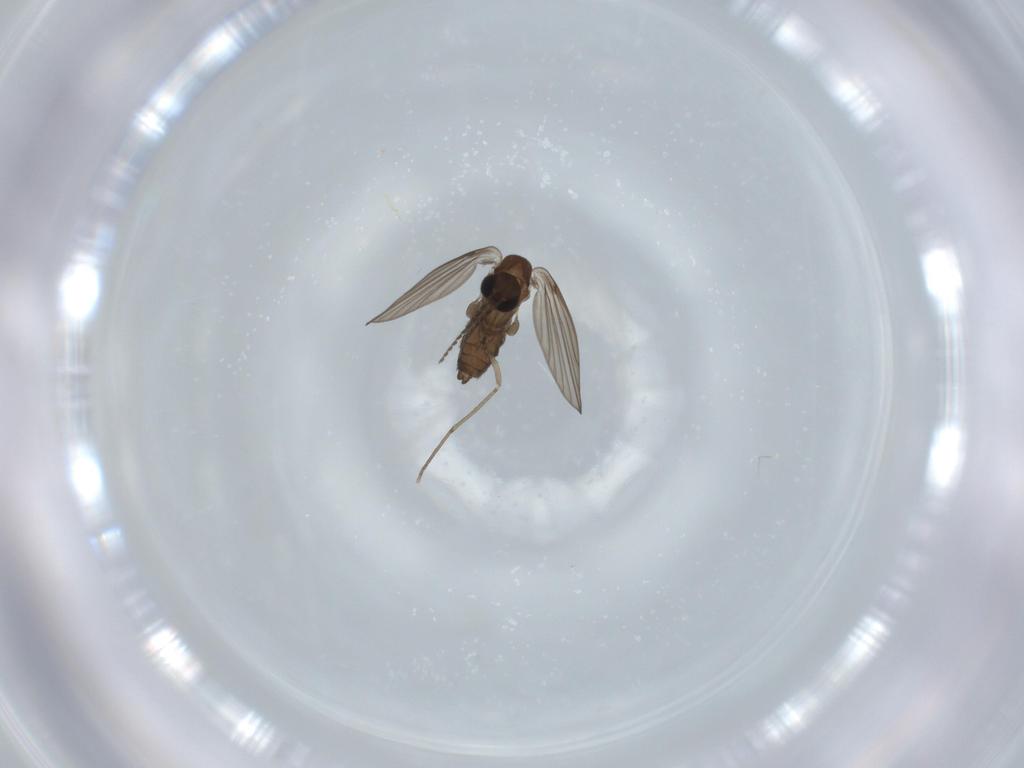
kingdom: Animalia
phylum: Arthropoda
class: Insecta
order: Diptera
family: Psychodidae
